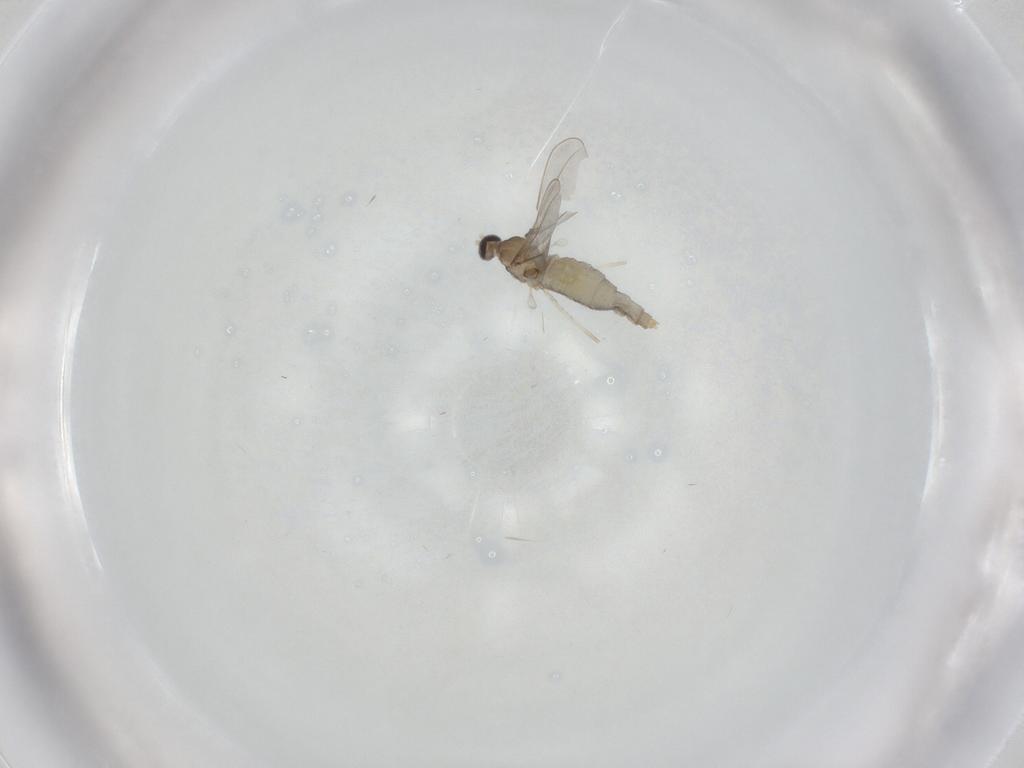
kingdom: Animalia
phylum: Arthropoda
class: Insecta
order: Diptera
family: Cecidomyiidae
